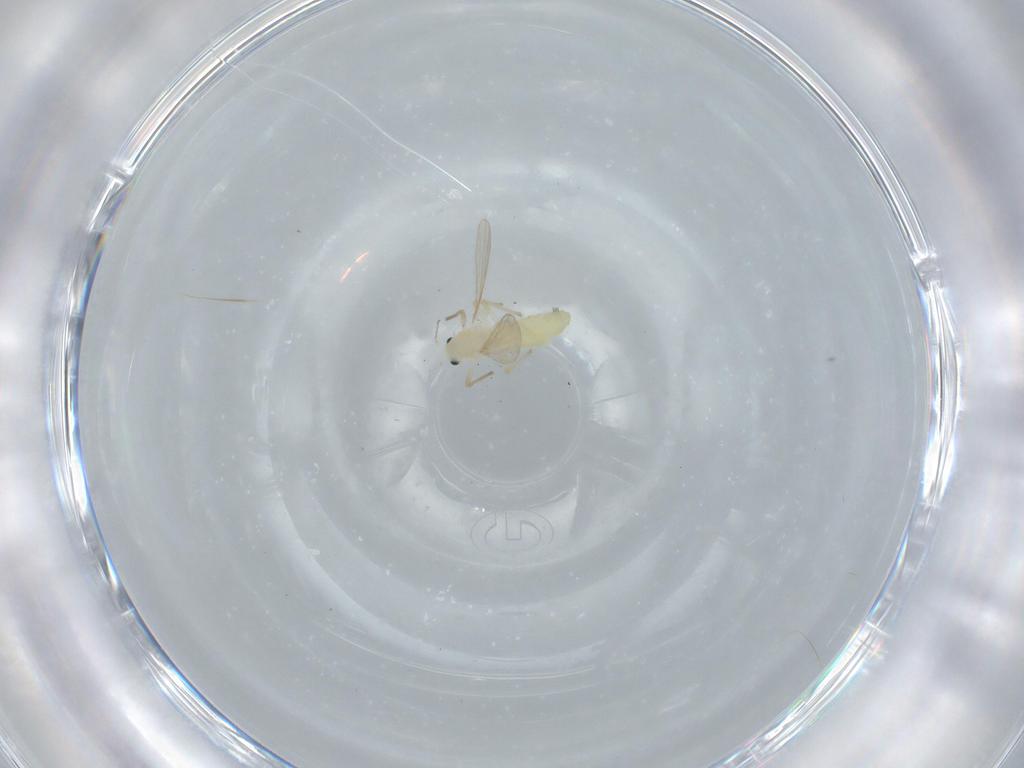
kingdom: Animalia
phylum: Arthropoda
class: Insecta
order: Diptera
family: Chironomidae
